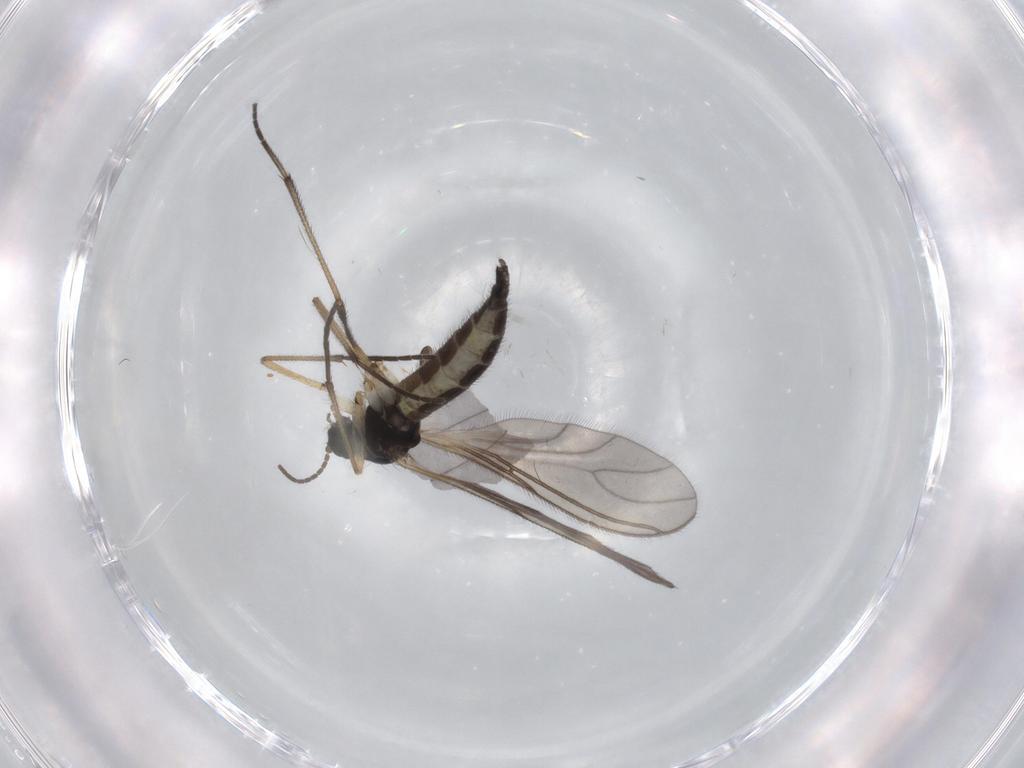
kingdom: Animalia
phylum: Arthropoda
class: Insecta
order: Diptera
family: Sciaridae
